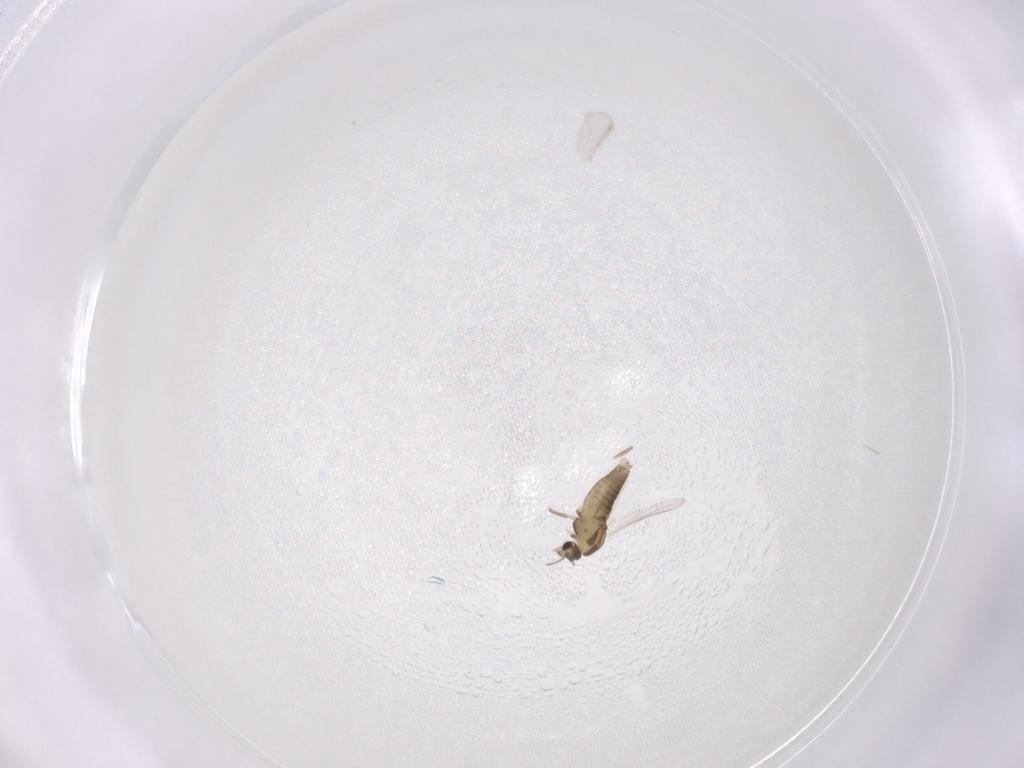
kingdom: Animalia
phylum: Arthropoda
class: Insecta
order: Diptera
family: Chironomidae
